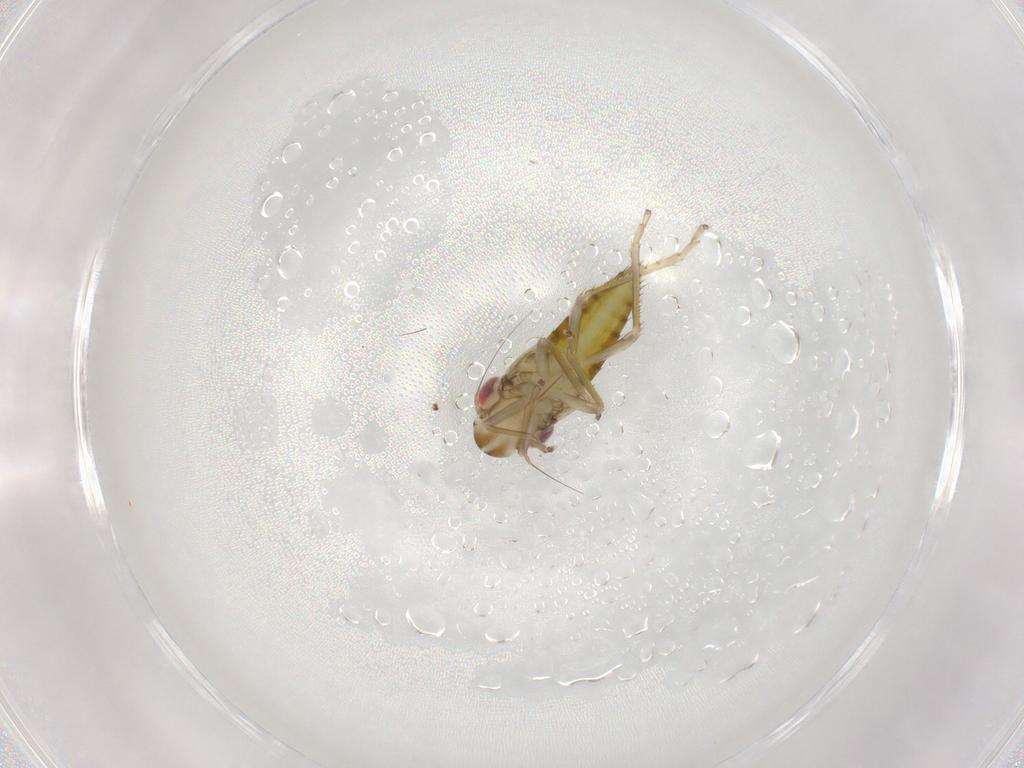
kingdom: Animalia
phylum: Arthropoda
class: Insecta
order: Hemiptera
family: Cicadellidae
